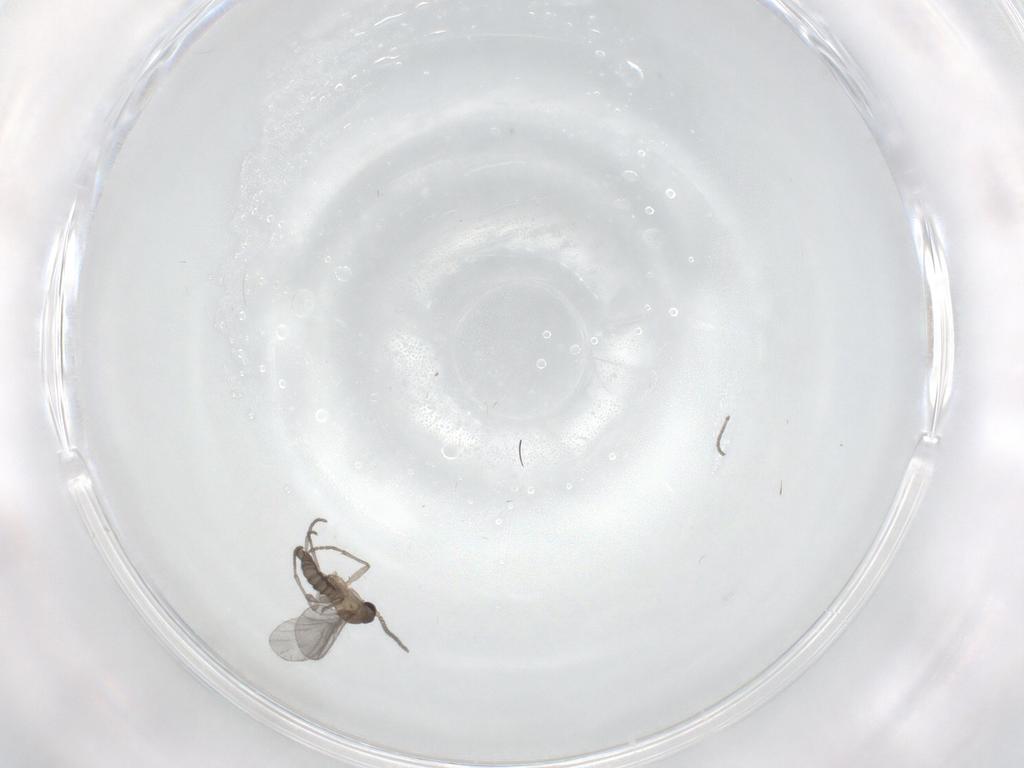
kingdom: Animalia
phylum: Arthropoda
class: Insecta
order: Diptera
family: Sciaridae
